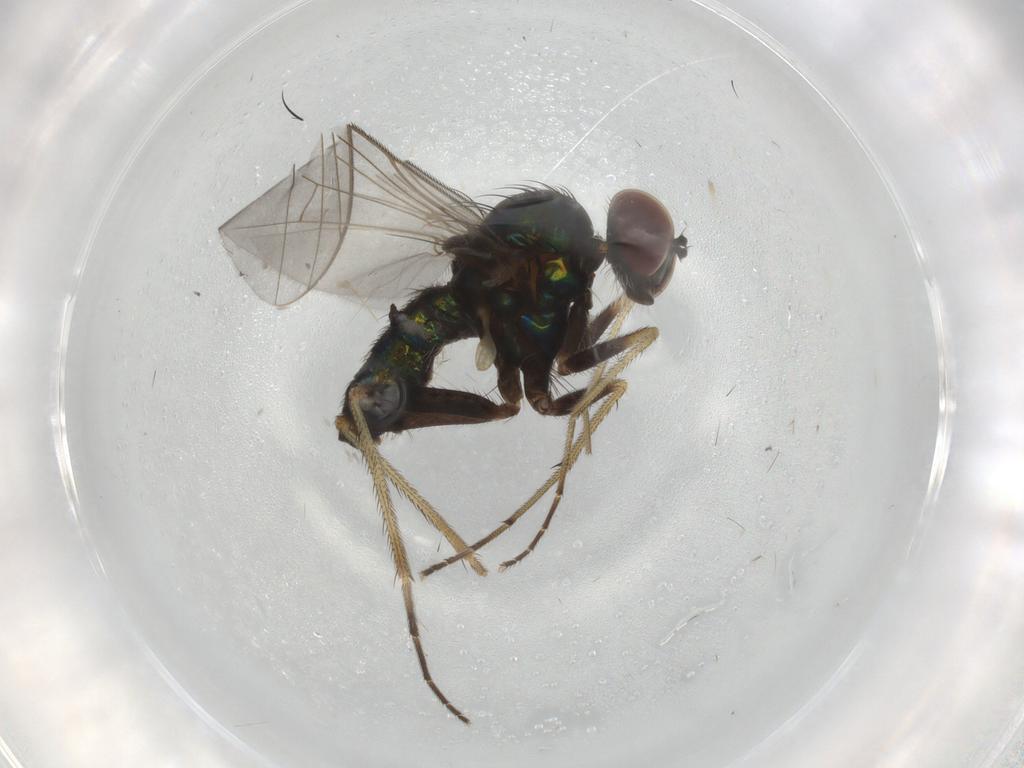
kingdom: Animalia
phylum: Arthropoda
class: Insecta
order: Diptera
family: Dolichopodidae
